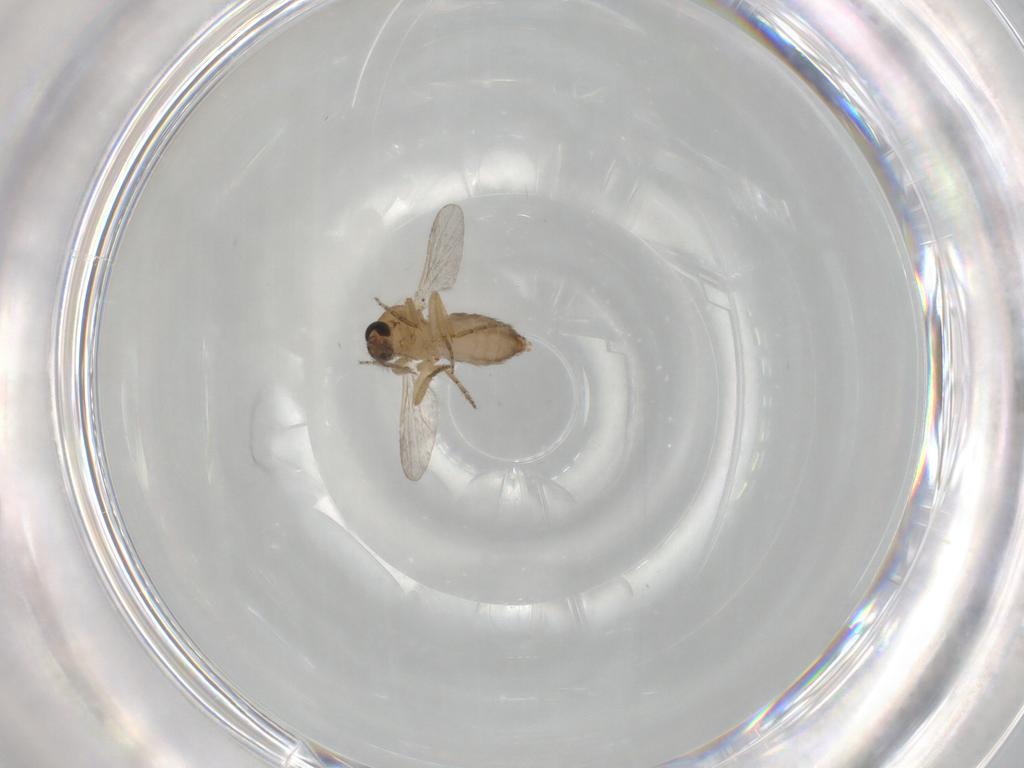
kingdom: Animalia
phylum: Arthropoda
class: Insecta
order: Diptera
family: Ceratopogonidae
